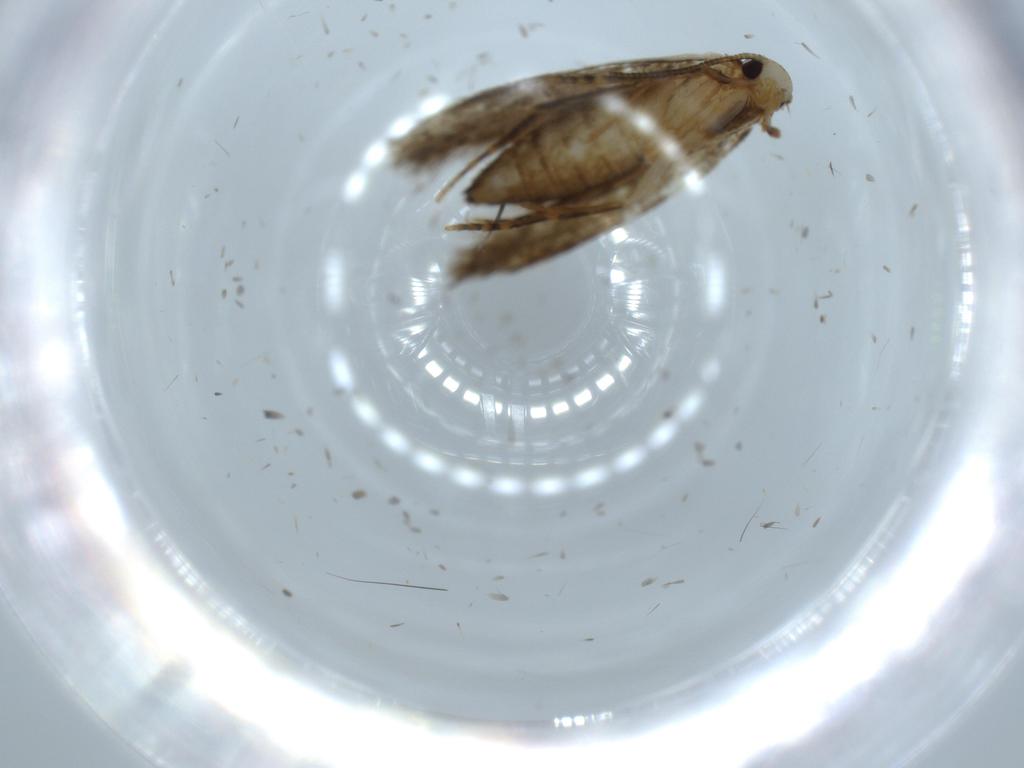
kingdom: Animalia
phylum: Arthropoda
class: Insecta
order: Lepidoptera
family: Tineidae
